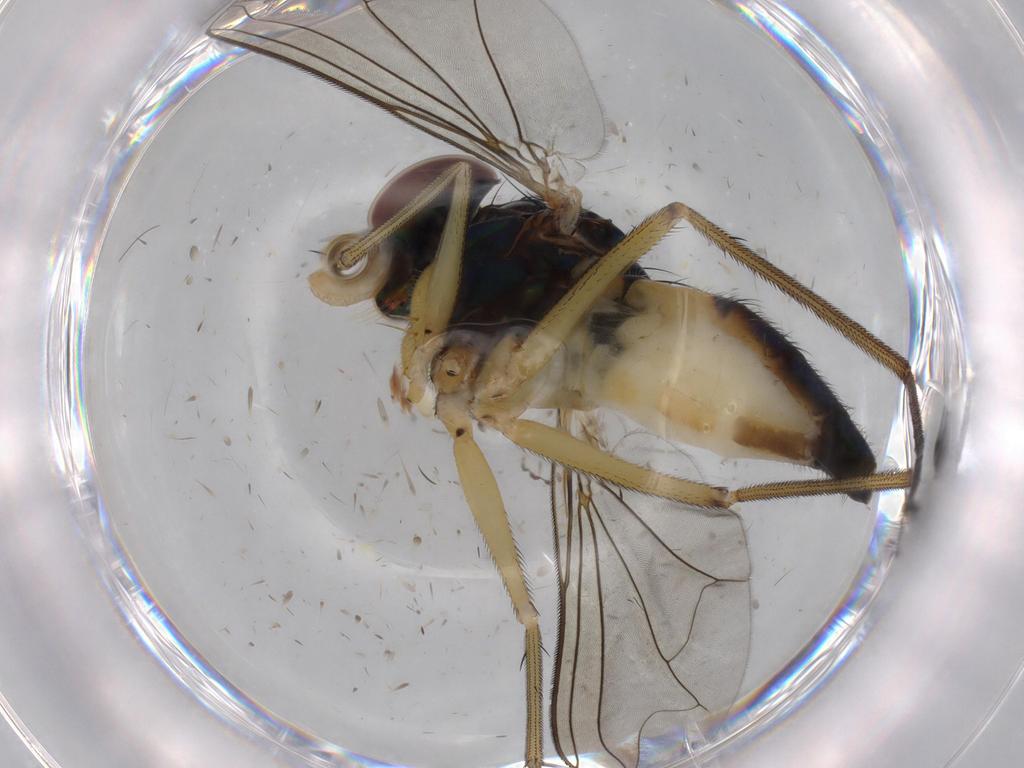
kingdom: Animalia
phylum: Arthropoda
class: Insecta
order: Diptera
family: Dolichopodidae
